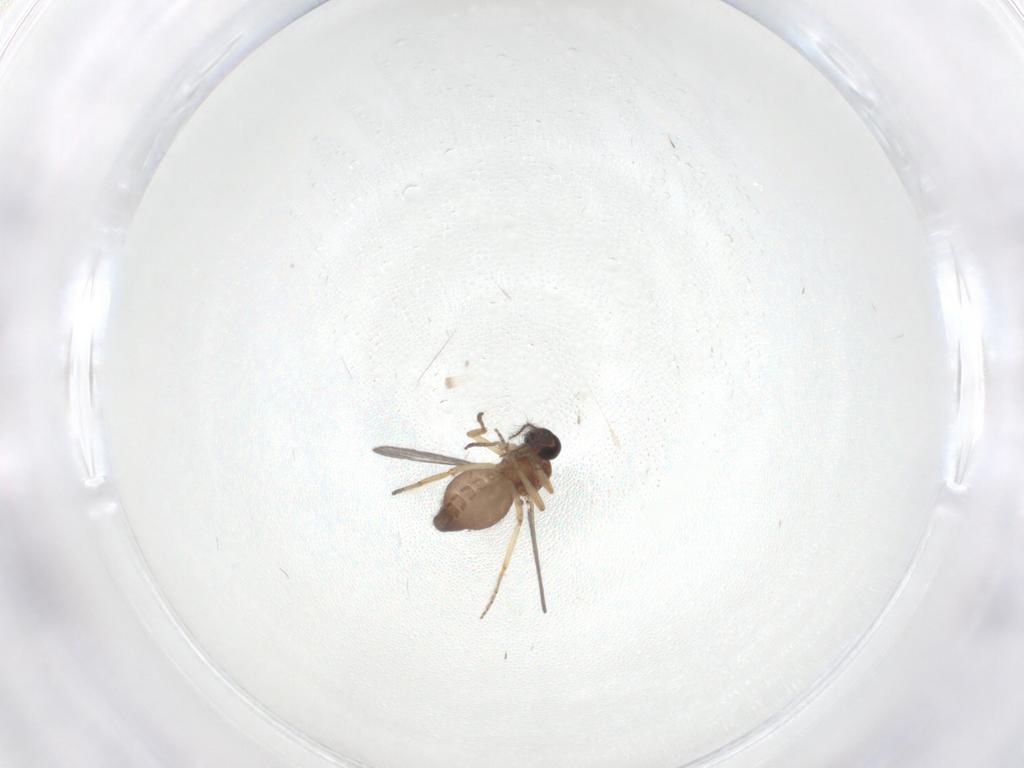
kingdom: Animalia
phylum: Arthropoda
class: Insecta
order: Diptera
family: Ceratopogonidae
